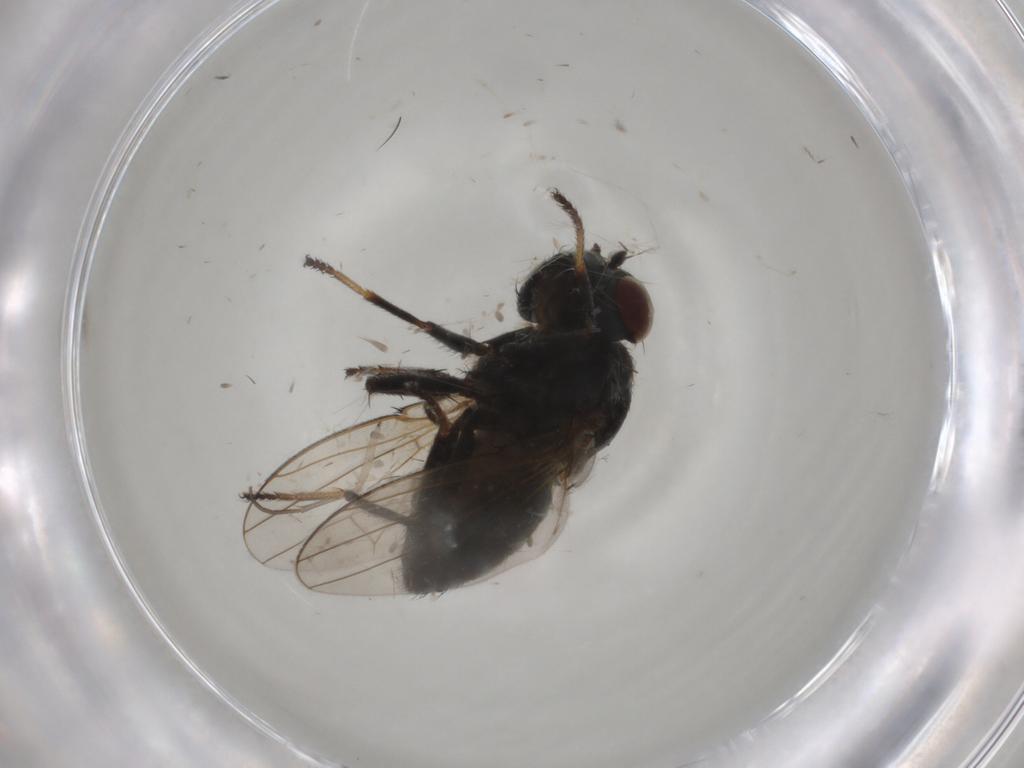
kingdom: Animalia
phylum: Arthropoda
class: Insecta
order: Diptera
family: Ephydridae
